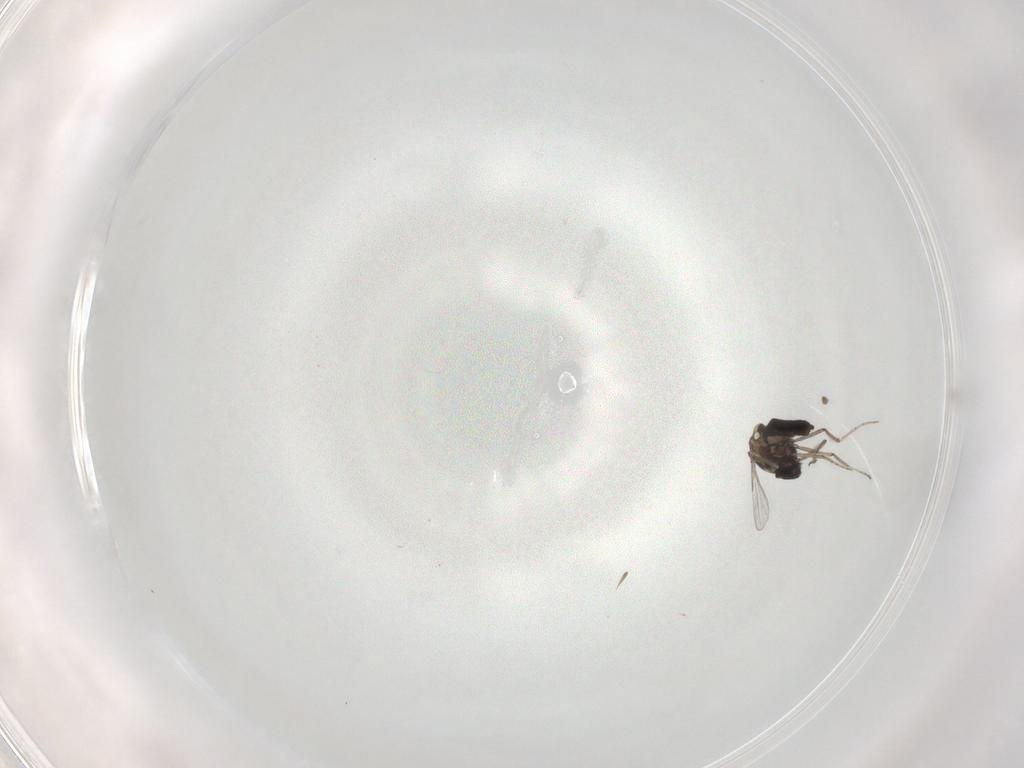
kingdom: Animalia
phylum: Arthropoda
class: Insecta
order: Diptera
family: Ceratopogonidae
